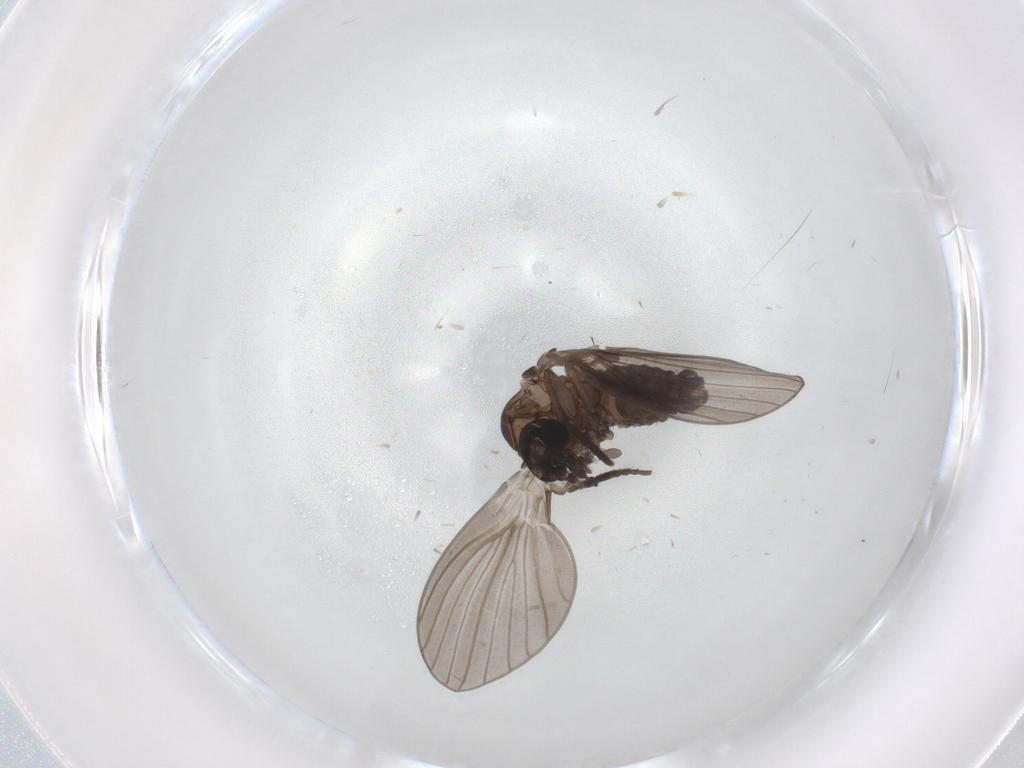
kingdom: Animalia
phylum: Arthropoda
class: Insecta
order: Diptera
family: Psychodidae
